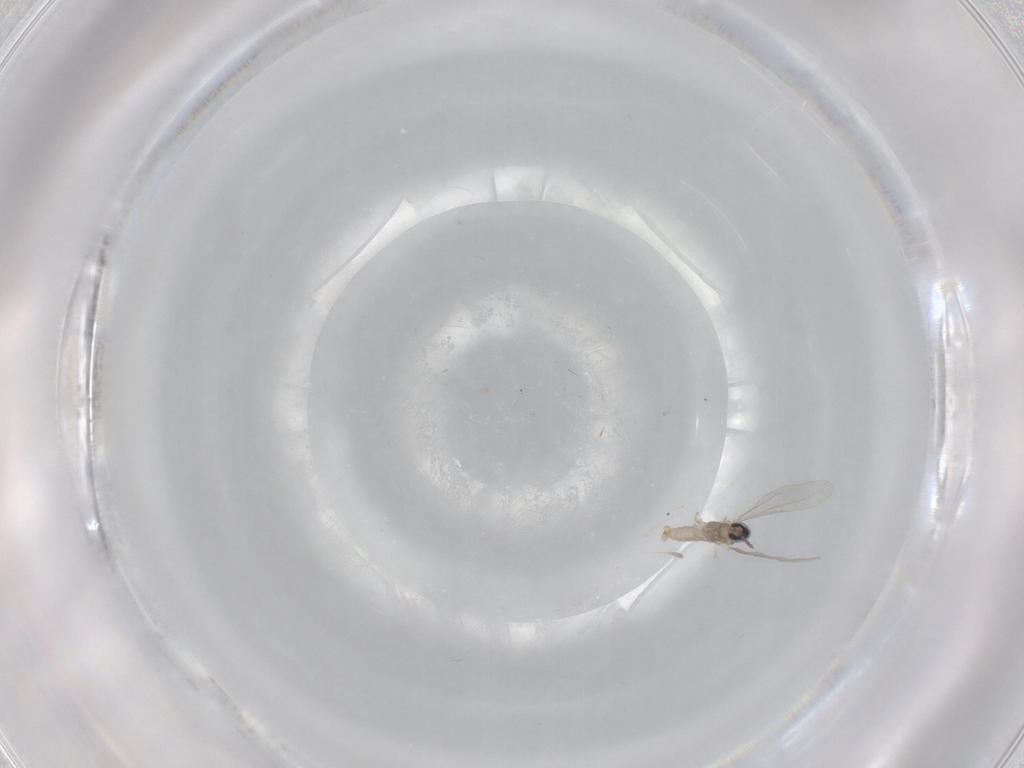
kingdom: Animalia
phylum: Arthropoda
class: Insecta
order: Diptera
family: Cecidomyiidae
